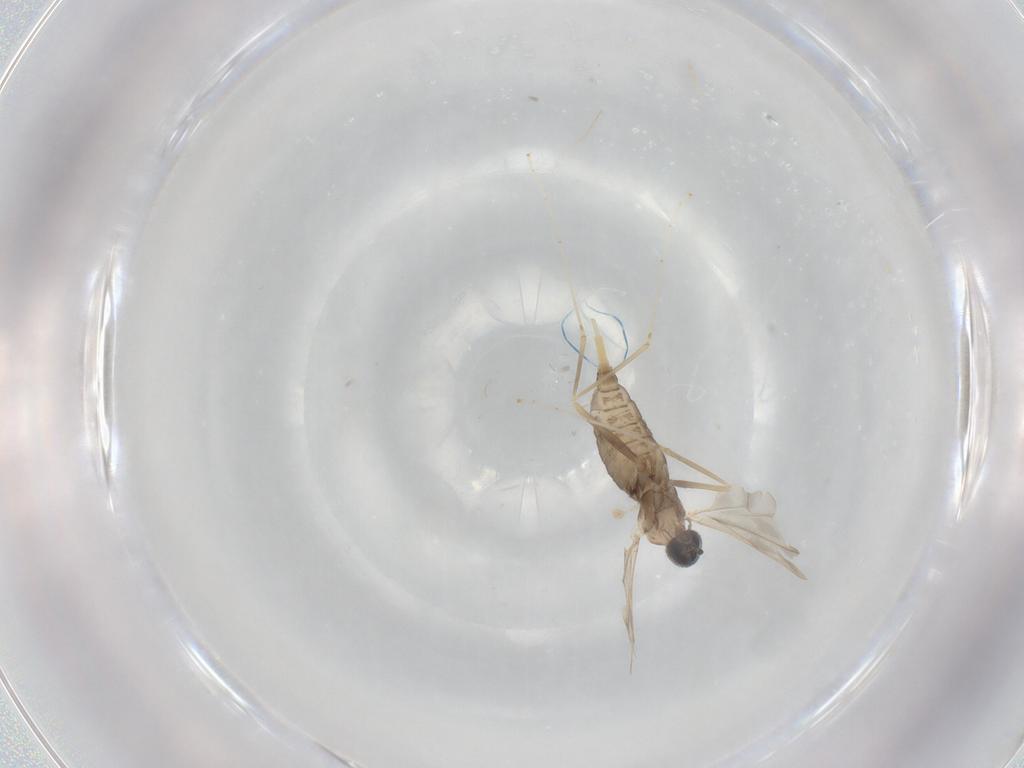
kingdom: Animalia
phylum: Arthropoda
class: Insecta
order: Diptera
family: Cecidomyiidae
